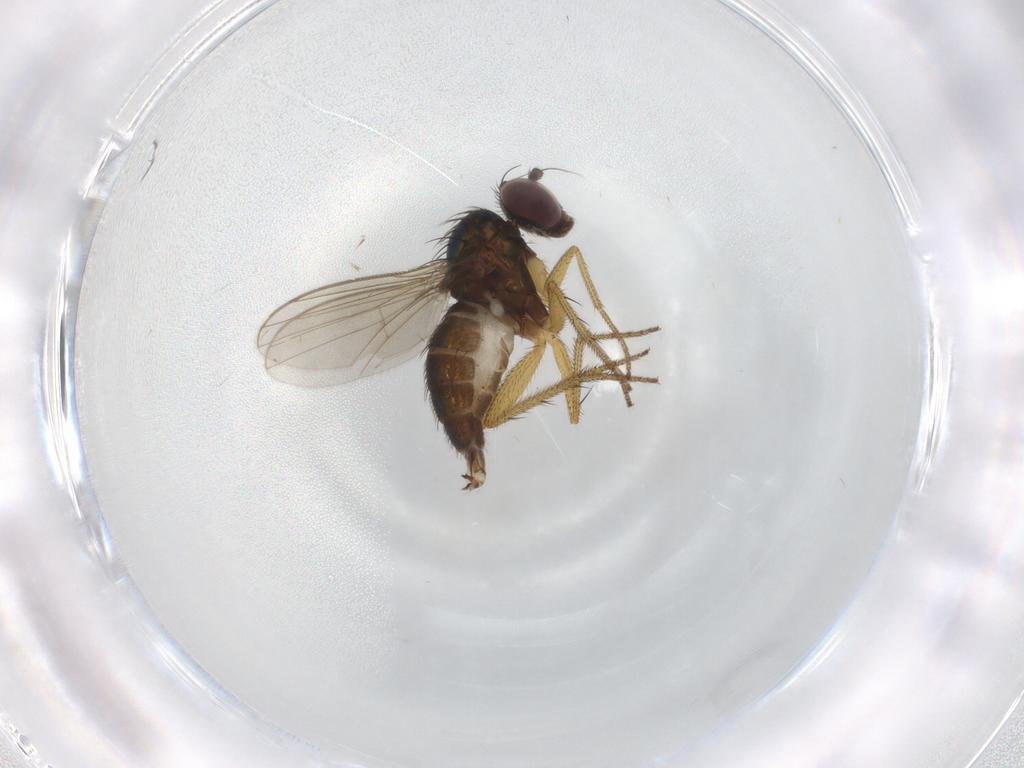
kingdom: Animalia
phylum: Arthropoda
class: Insecta
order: Diptera
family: Dolichopodidae
